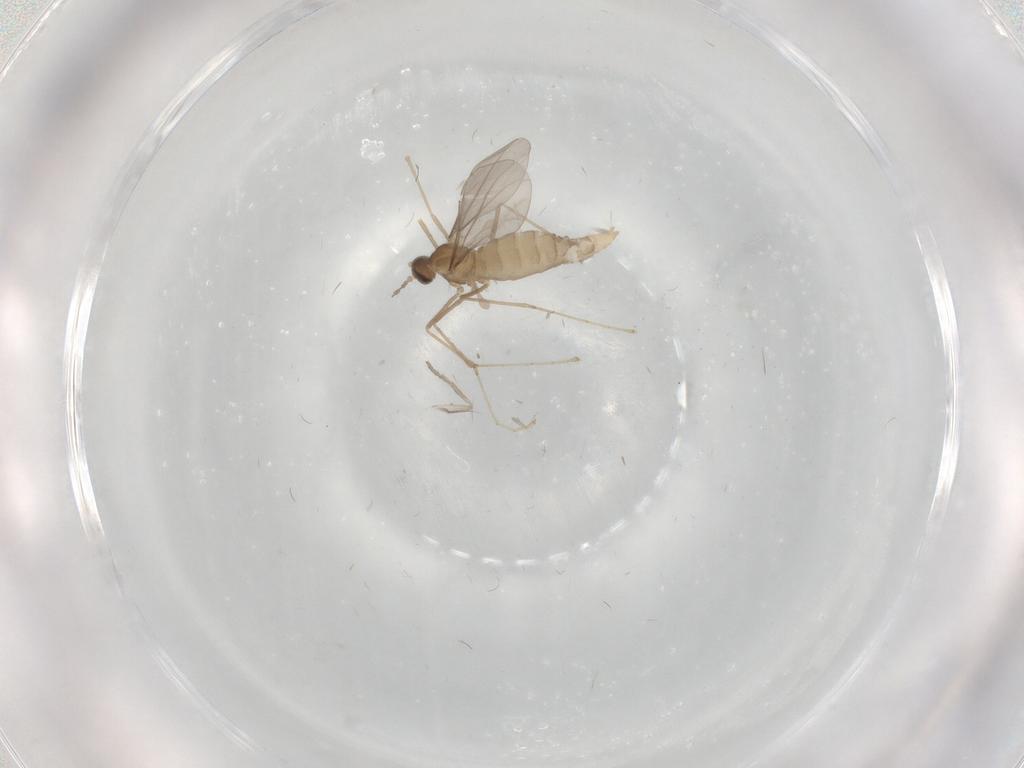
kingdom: Animalia
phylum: Arthropoda
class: Insecta
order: Diptera
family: Cecidomyiidae
